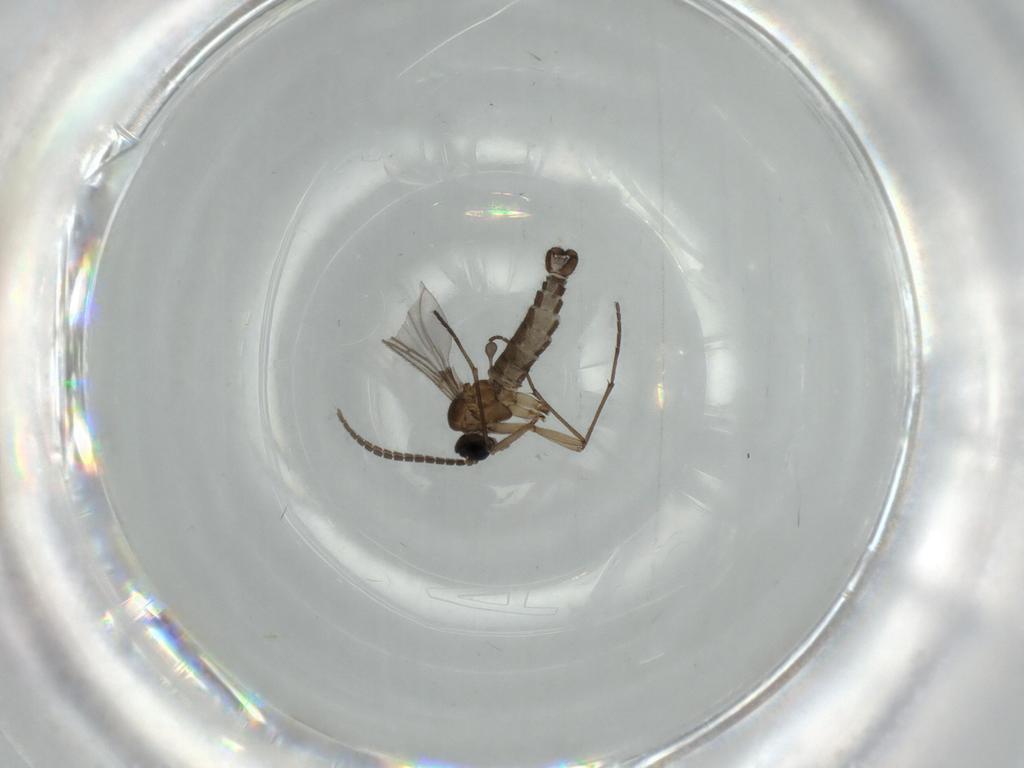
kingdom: Animalia
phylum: Arthropoda
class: Insecta
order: Diptera
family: Sciaridae
